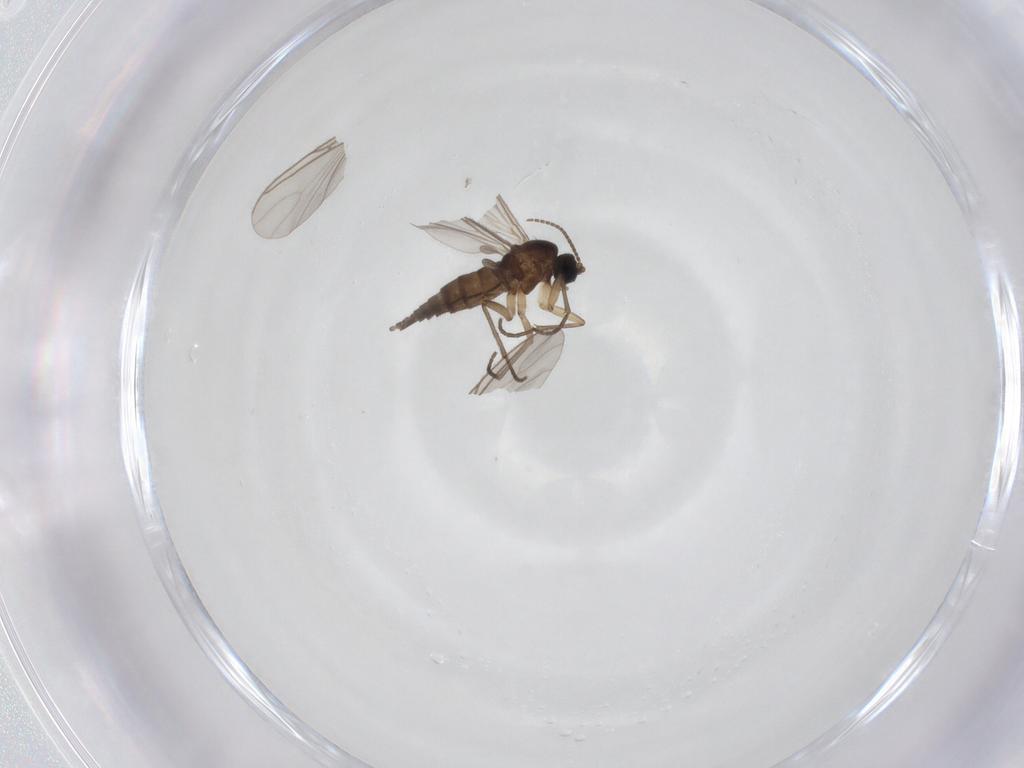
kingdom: Animalia
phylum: Arthropoda
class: Insecta
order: Diptera
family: Sciaridae
